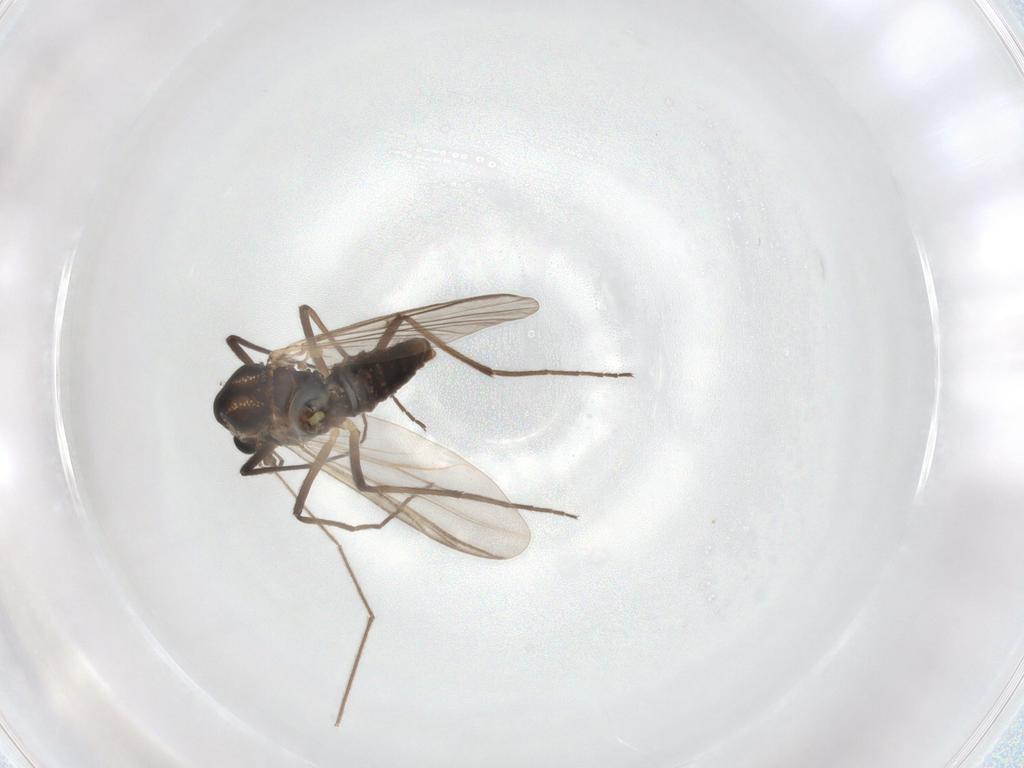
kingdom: Animalia
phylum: Arthropoda
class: Insecta
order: Diptera
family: Chironomidae
